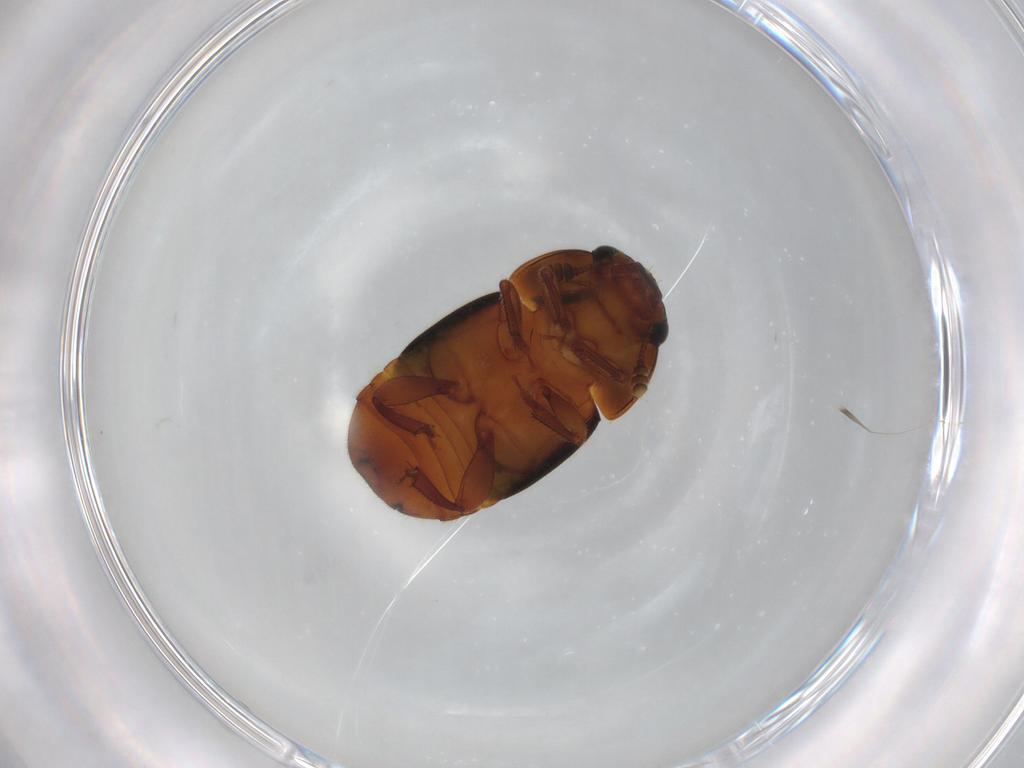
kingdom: Animalia
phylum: Arthropoda
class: Insecta
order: Coleoptera
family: Nitidulidae
